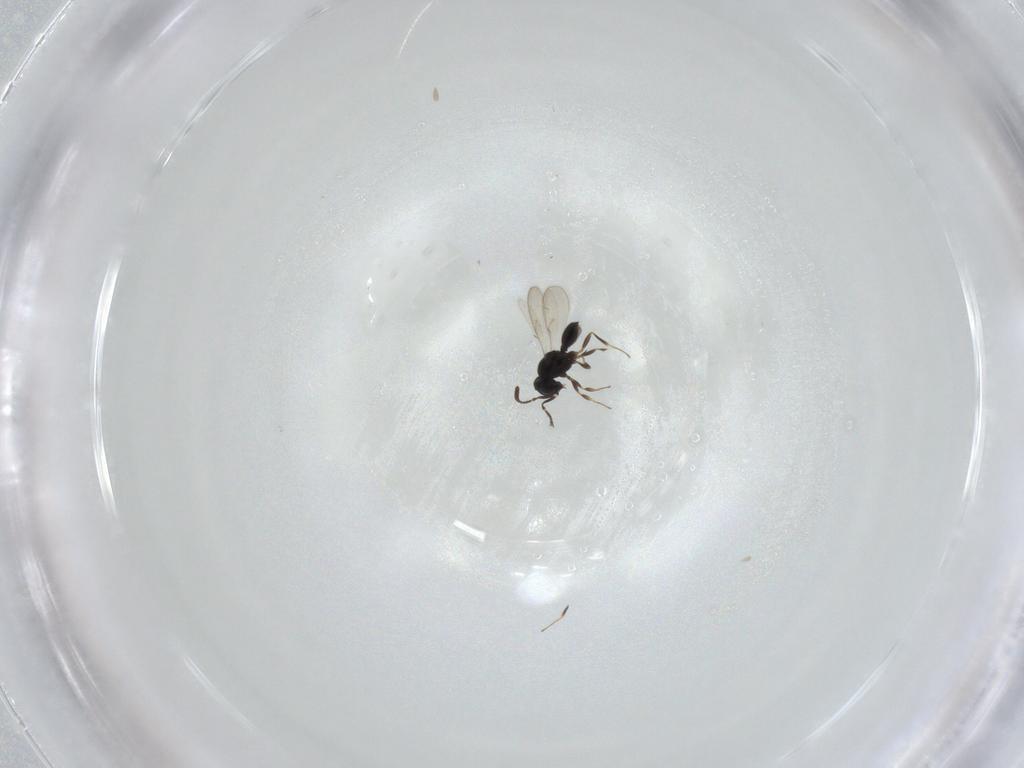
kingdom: Animalia
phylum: Arthropoda
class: Insecta
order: Hymenoptera
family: Scelionidae
